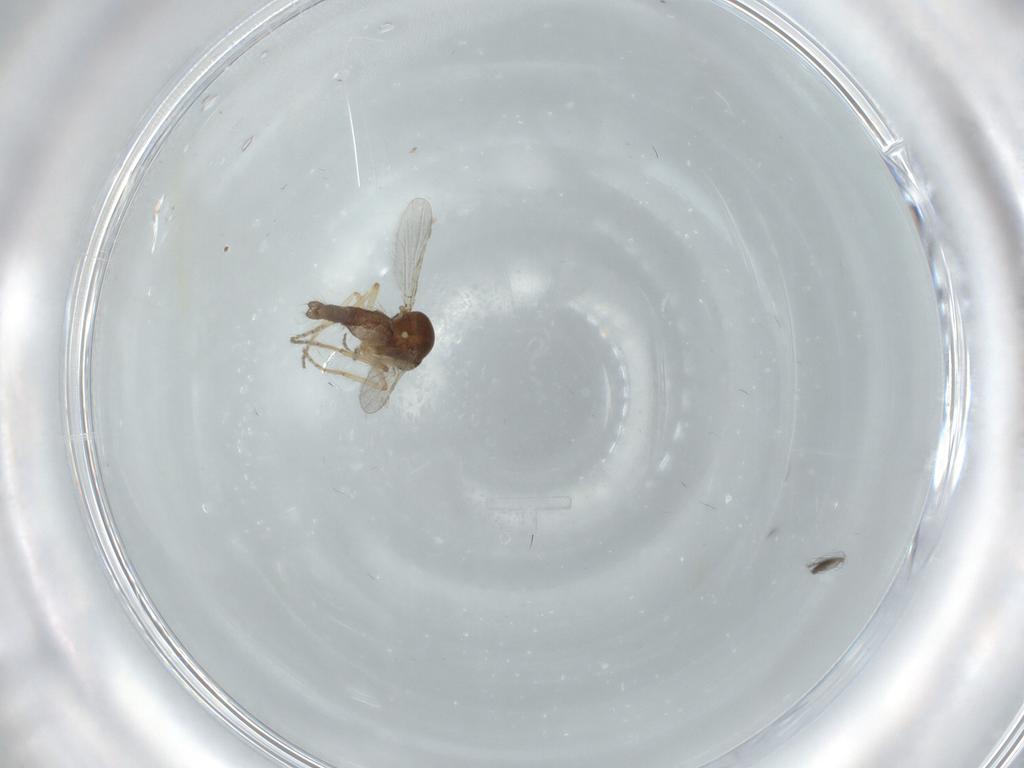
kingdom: Animalia
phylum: Arthropoda
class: Insecta
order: Diptera
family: Ceratopogonidae
